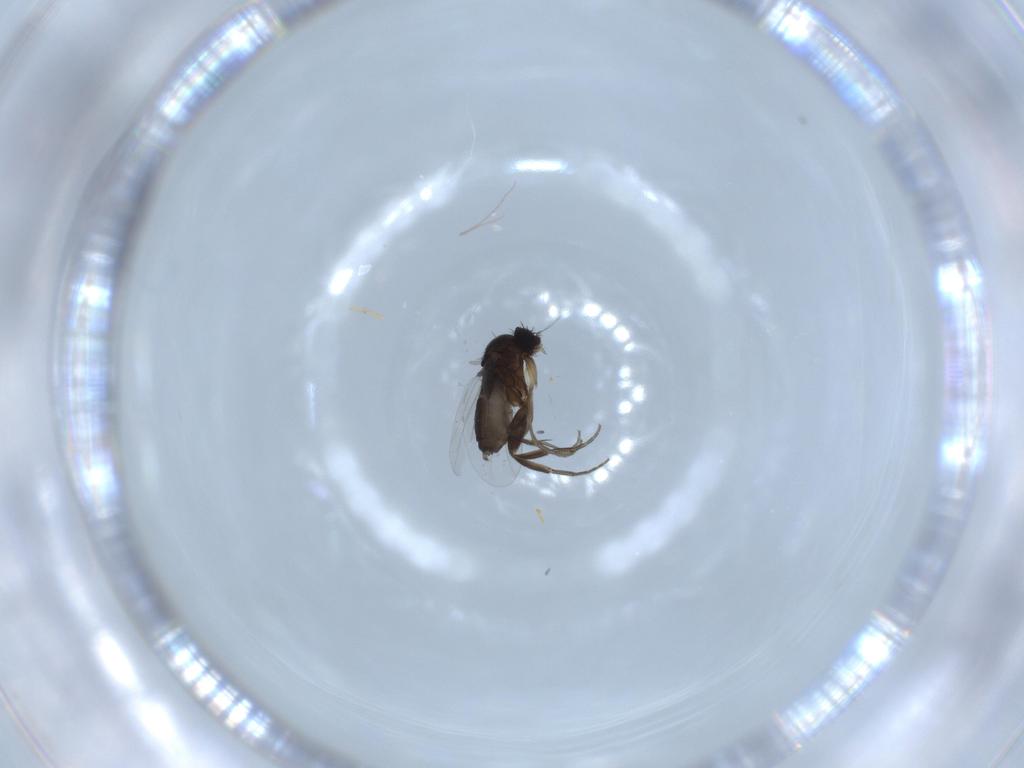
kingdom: Animalia
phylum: Arthropoda
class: Insecta
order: Diptera
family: Phoridae
